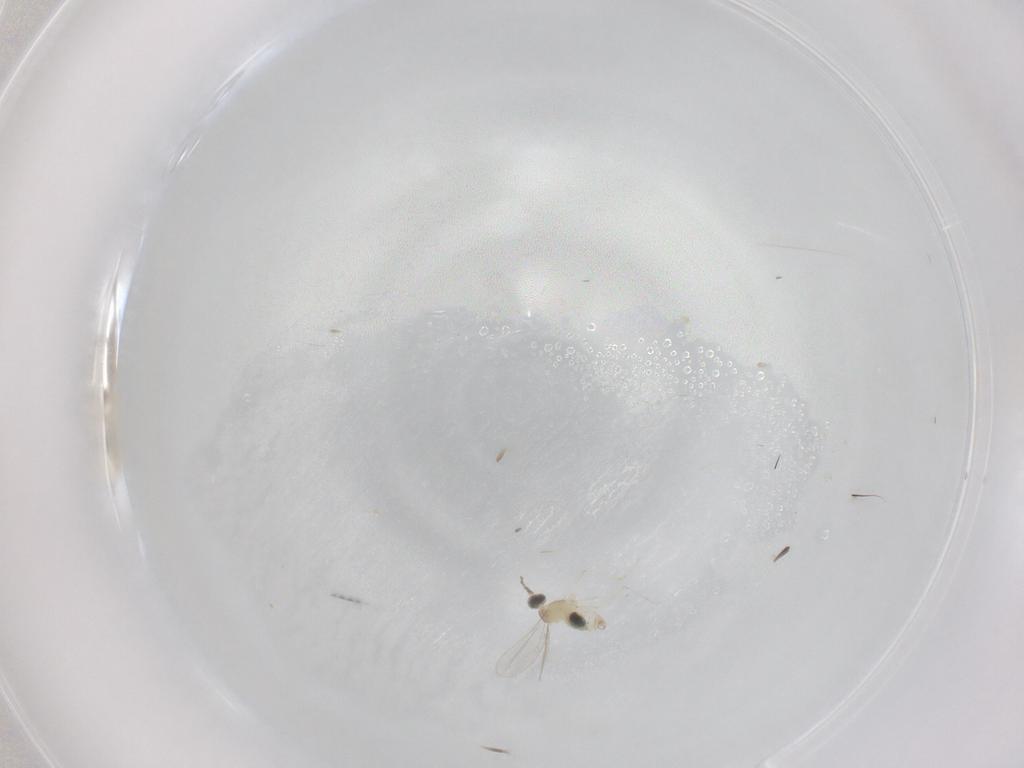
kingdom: Animalia
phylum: Arthropoda
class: Insecta
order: Diptera
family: Cecidomyiidae
